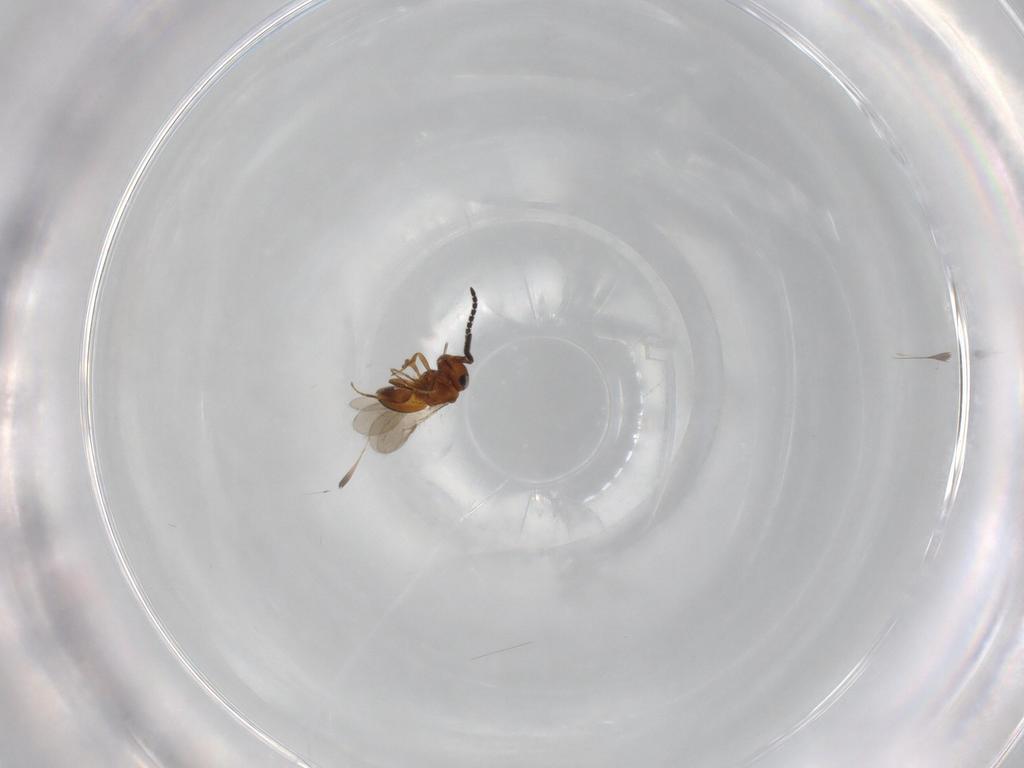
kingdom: Animalia
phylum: Arthropoda
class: Insecta
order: Hymenoptera
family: Scelionidae
